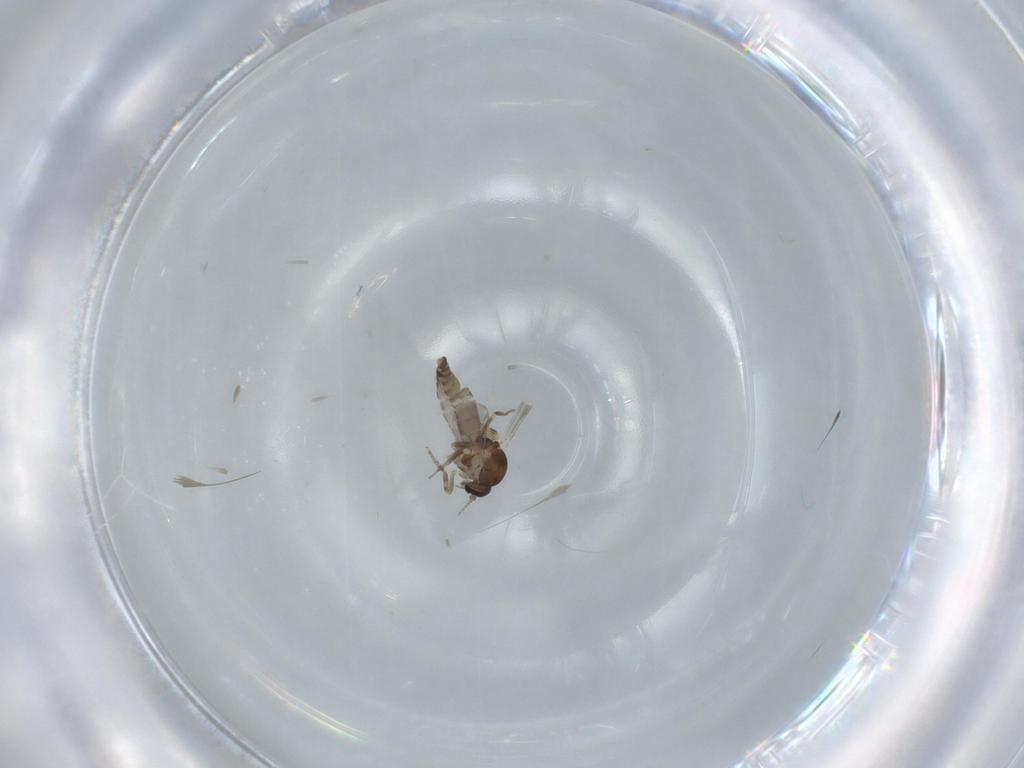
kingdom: Animalia
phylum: Arthropoda
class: Insecta
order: Diptera
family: Ceratopogonidae
